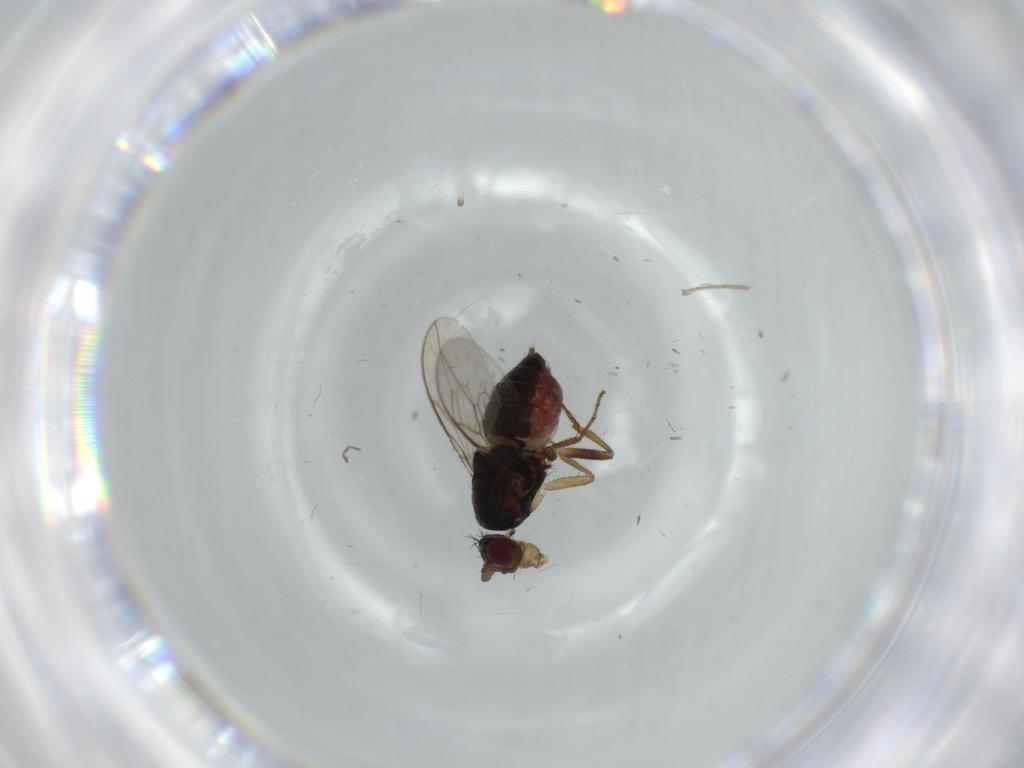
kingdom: Animalia
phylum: Arthropoda
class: Insecta
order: Diptera
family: Sphaeroceridae
